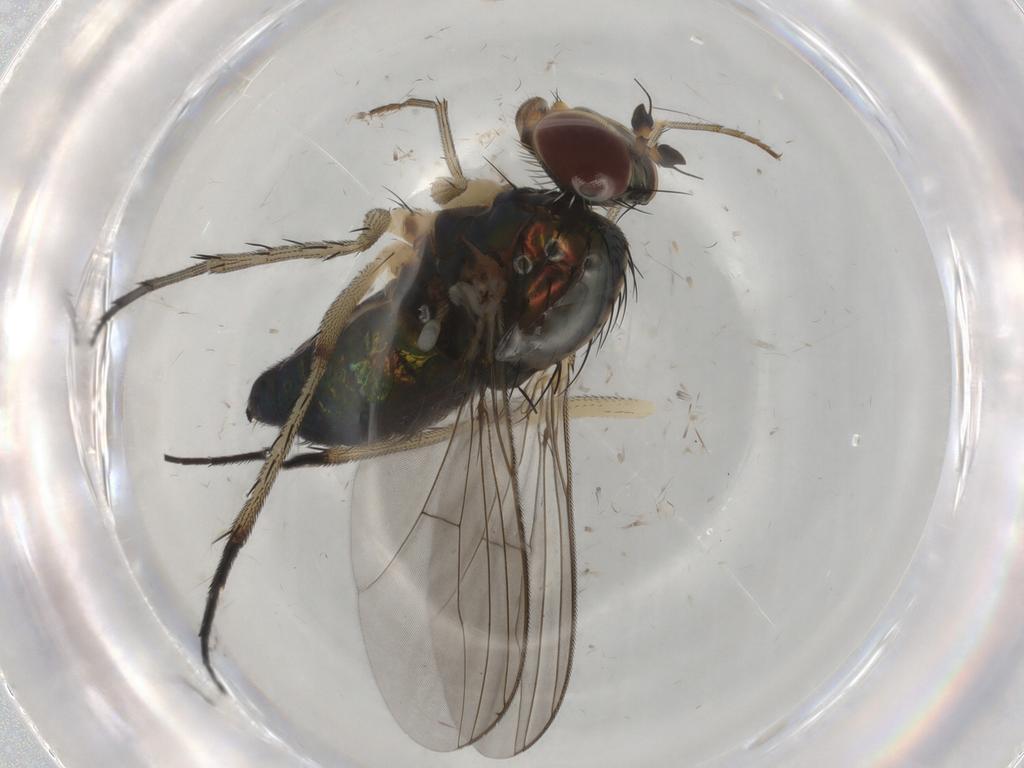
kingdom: Animalia
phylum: Arthropoda
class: Insecta
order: Diptera
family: Dolichopodidae
